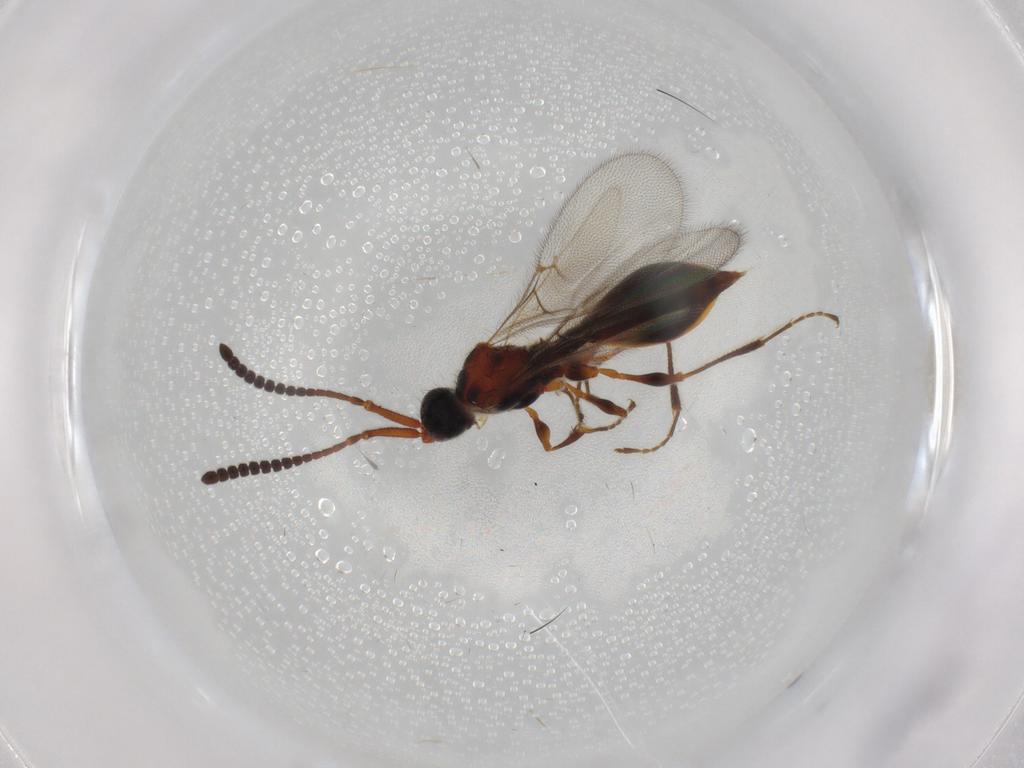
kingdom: Animalia
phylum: Arthropoda
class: Insecta
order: Hymenoptera
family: Diapriidae
